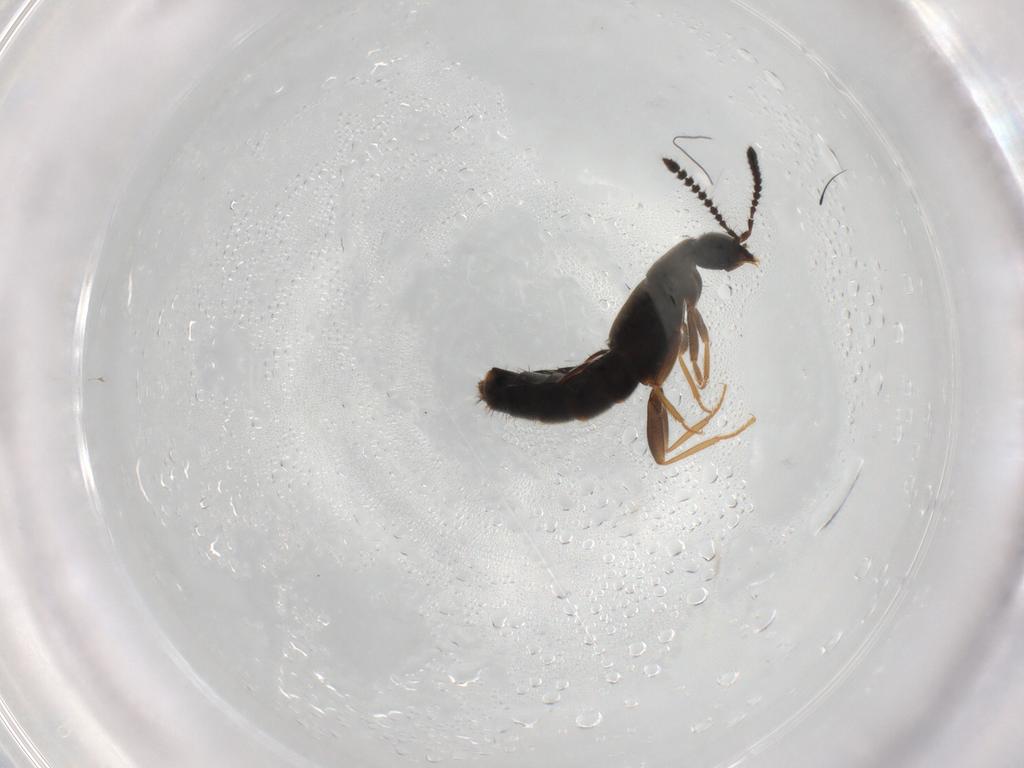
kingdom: Animalia
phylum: Arthropoda
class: Insecta
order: Coleoptera
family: Staphylinidae
